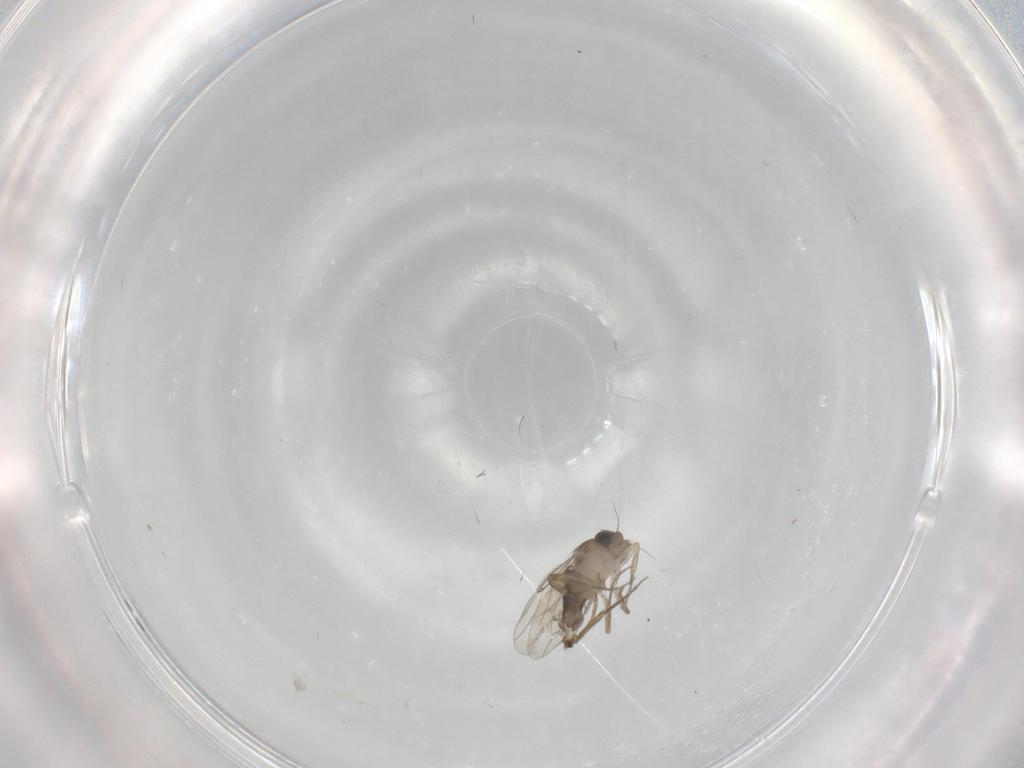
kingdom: Animalia
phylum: Arthropoda
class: Insecta
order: Diptera
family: Phoridae
